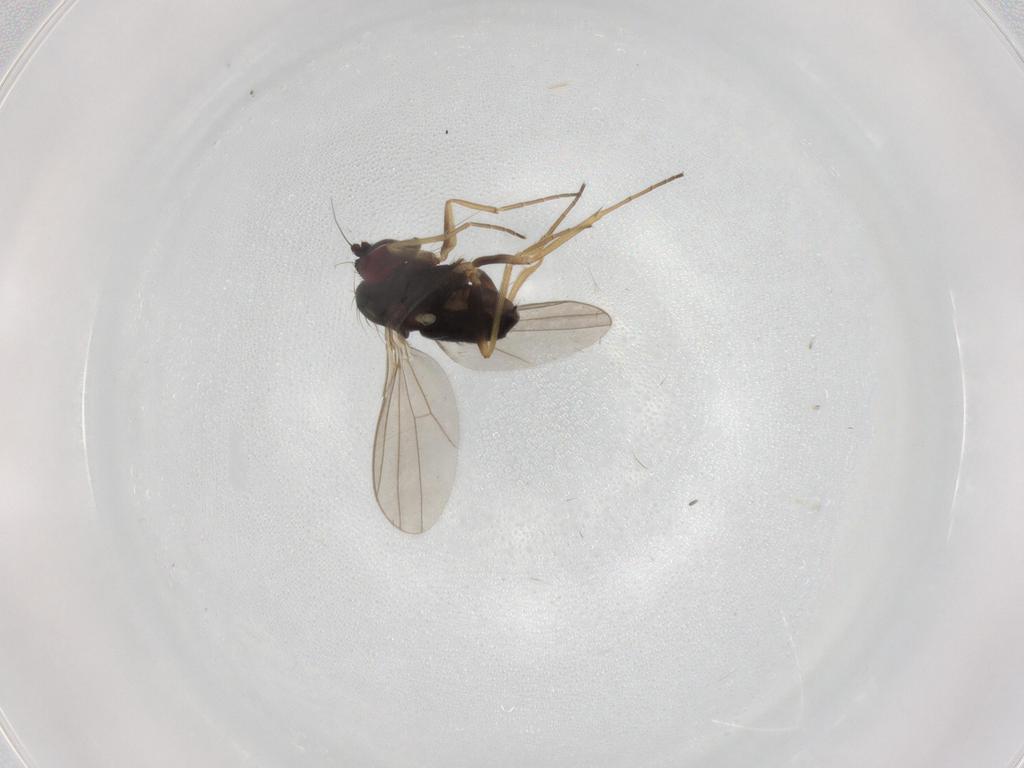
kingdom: Animalia
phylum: Arthropoda
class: Insecta
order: Diptera
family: Dolichopodidae
